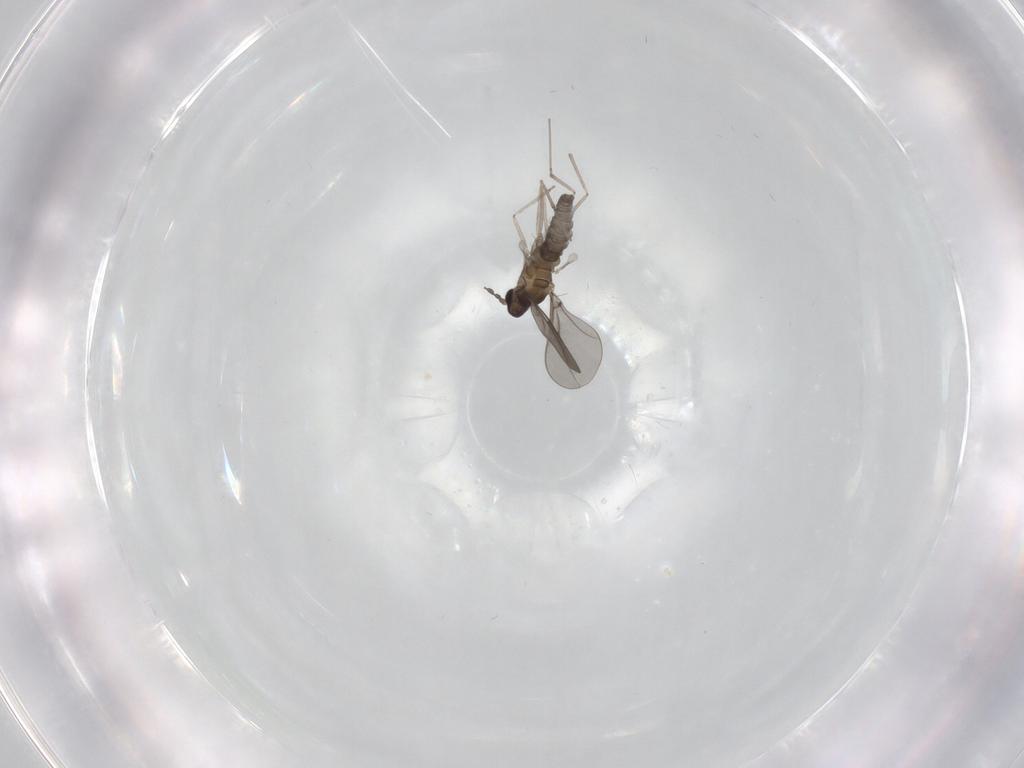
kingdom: Animalia
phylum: Arthropoda
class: Insecta
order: Diptera
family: Cecidomyiidae
